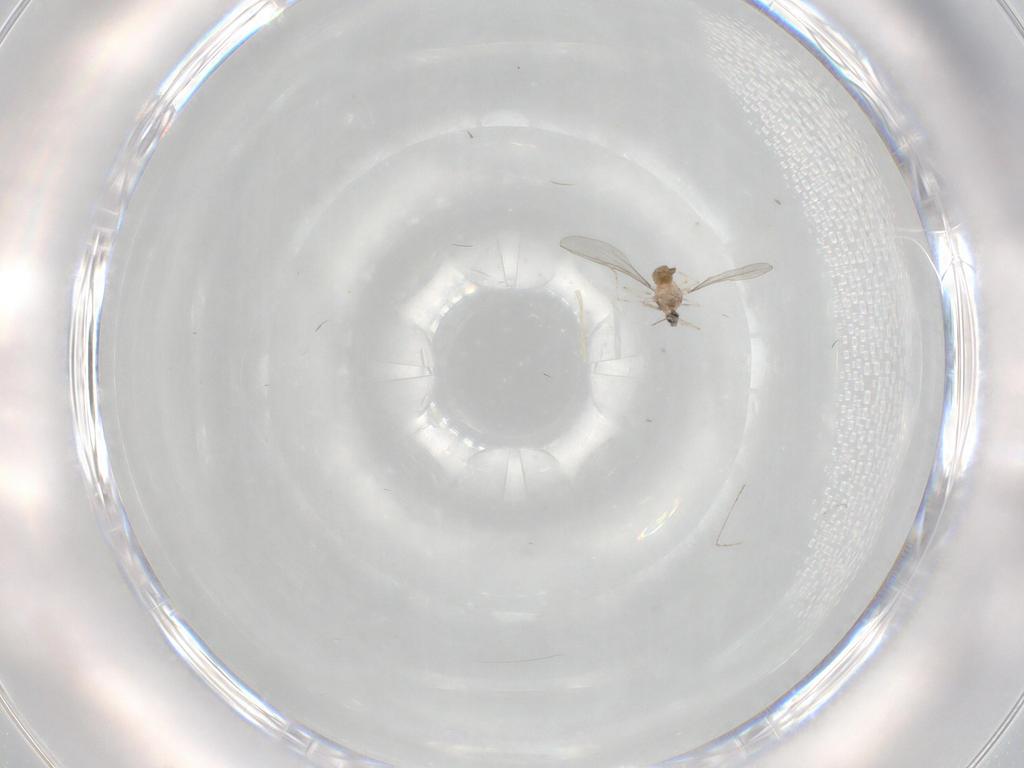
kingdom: Animalia
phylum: Arthropoda
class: Insecta
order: Diptera
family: Cecidomyiidae
